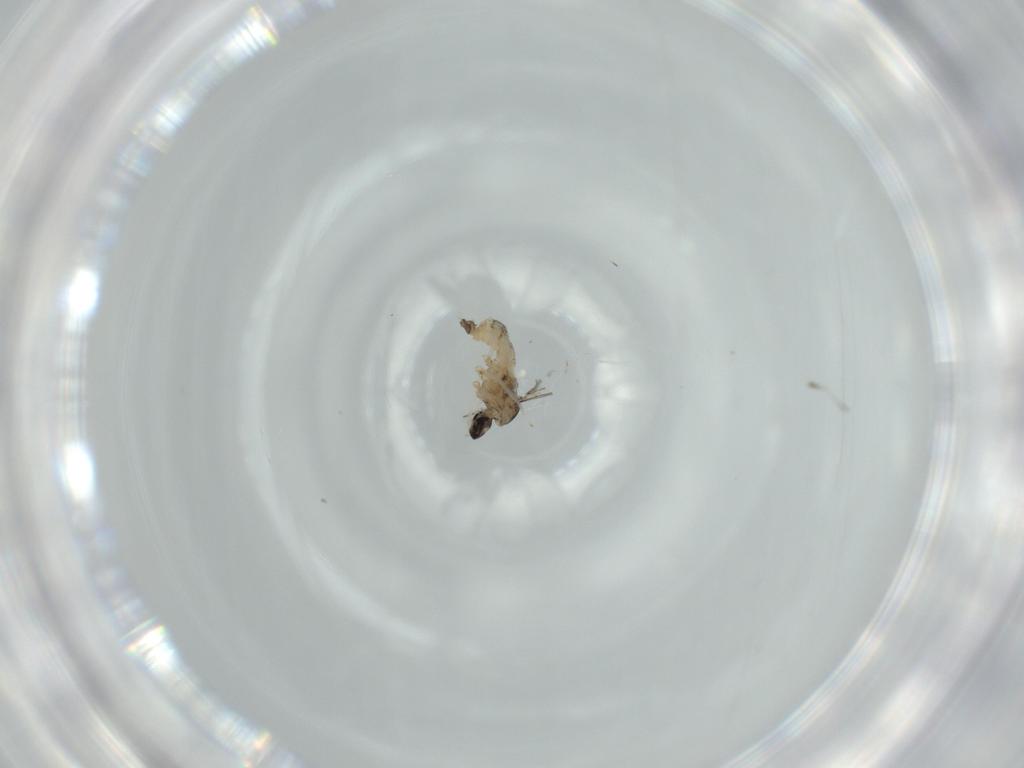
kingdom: Animalia
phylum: Arthropoda
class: Insecta
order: Diptera
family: Cecidomyiidae
